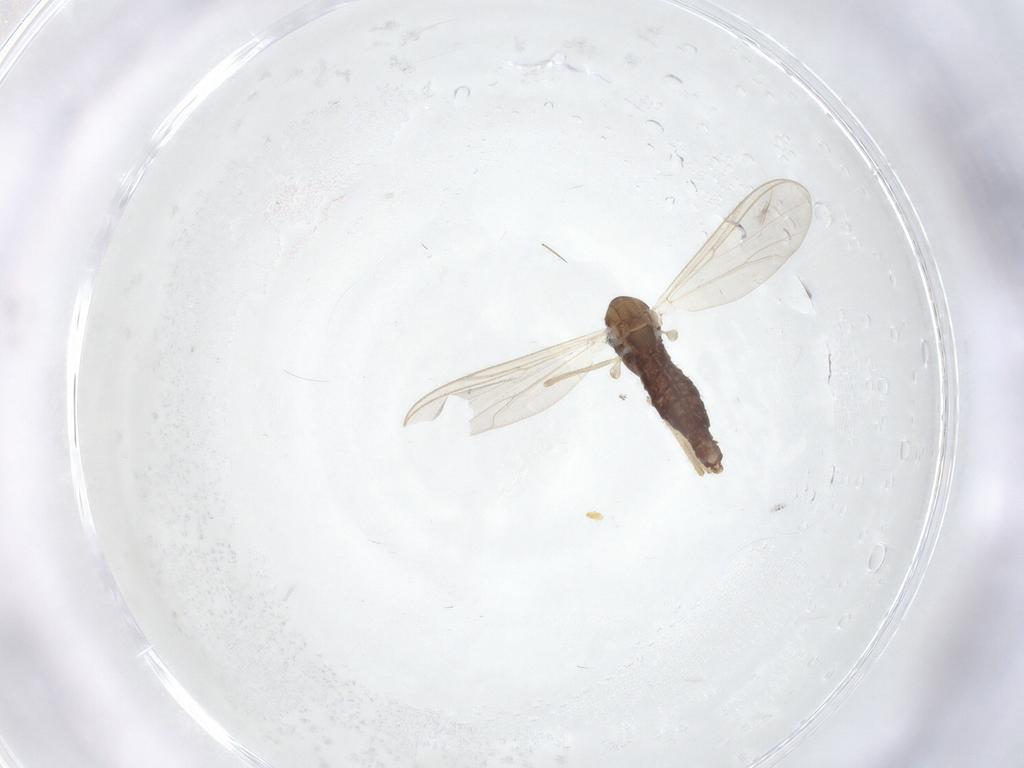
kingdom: Animalia
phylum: Arthropoda
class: Insecta
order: Diptera
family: Chironomidae
